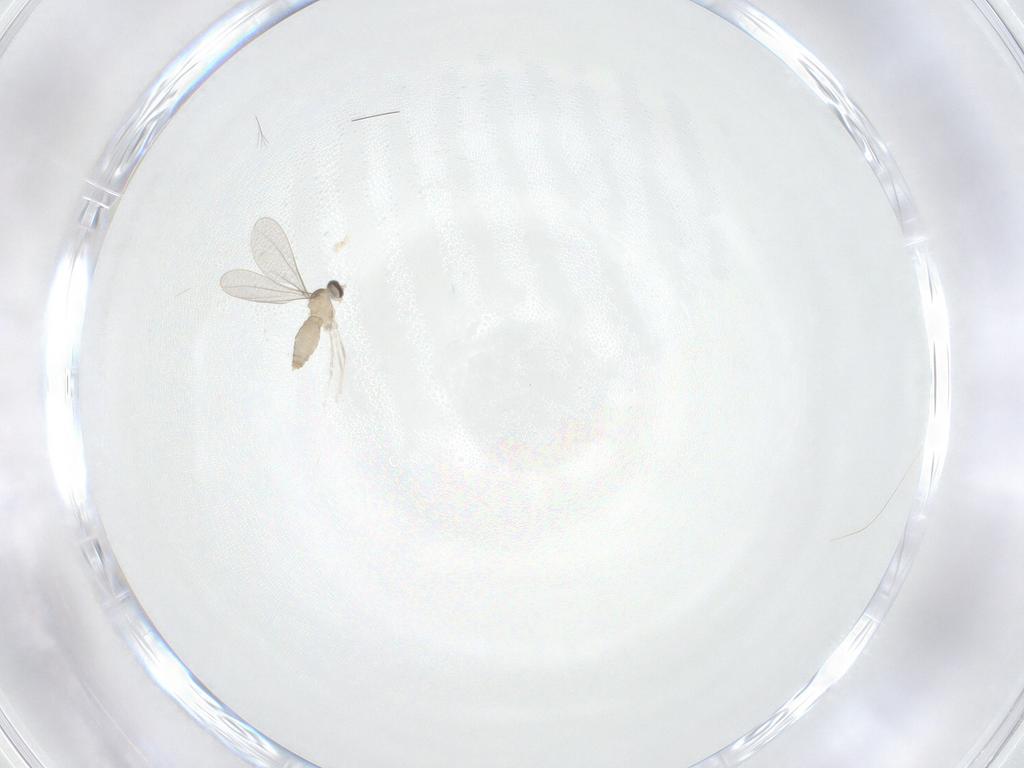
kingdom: Animalia
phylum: Arthropoda
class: Insecta
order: Diptera
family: Cecidomyiidae
